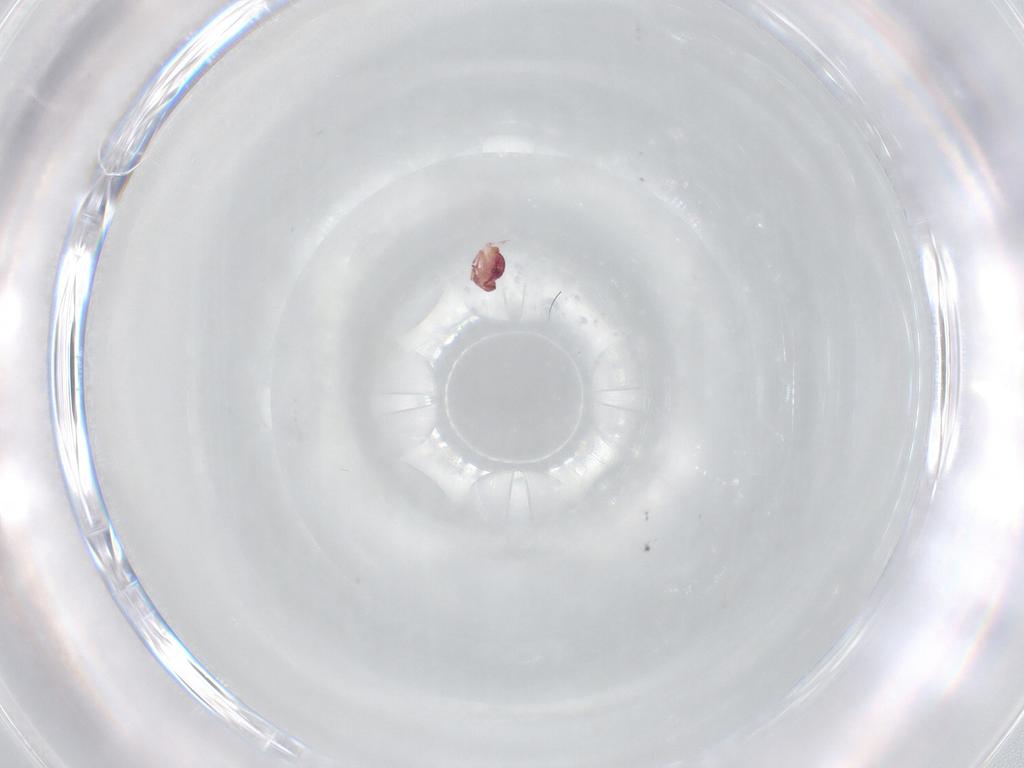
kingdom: Animalia
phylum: Arthropoda
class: Collembola
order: Symphypleona
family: Sminthurididae
